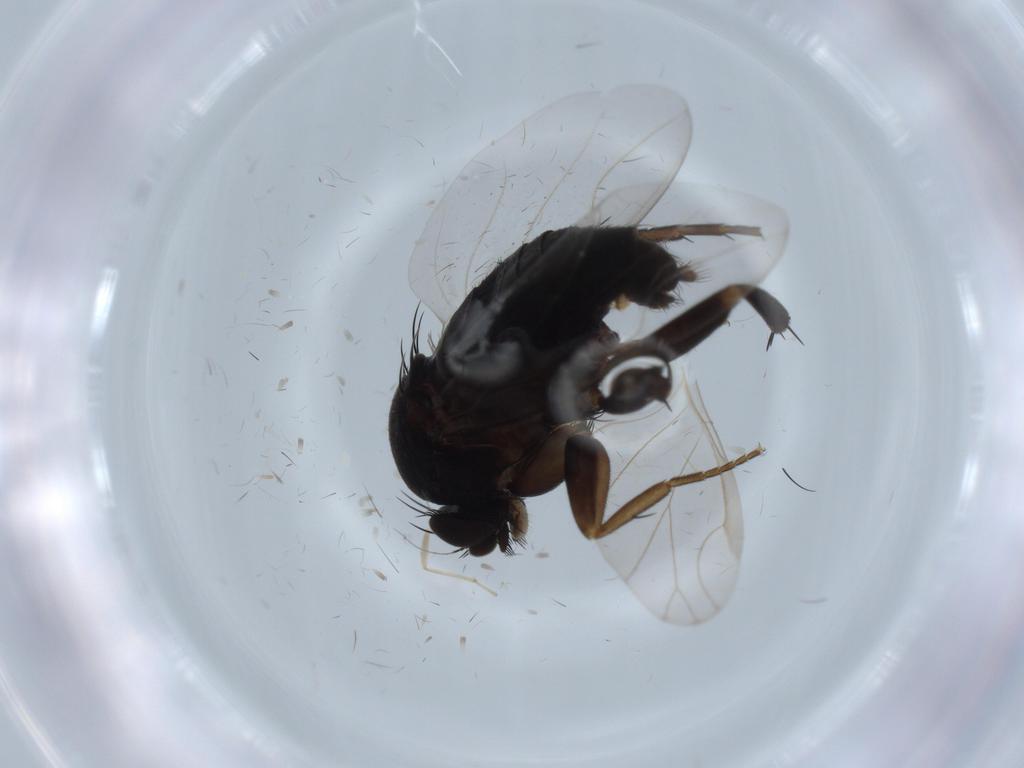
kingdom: Animalia
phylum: Arthropoda
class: Insecta
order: Diptera
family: Phoridae
